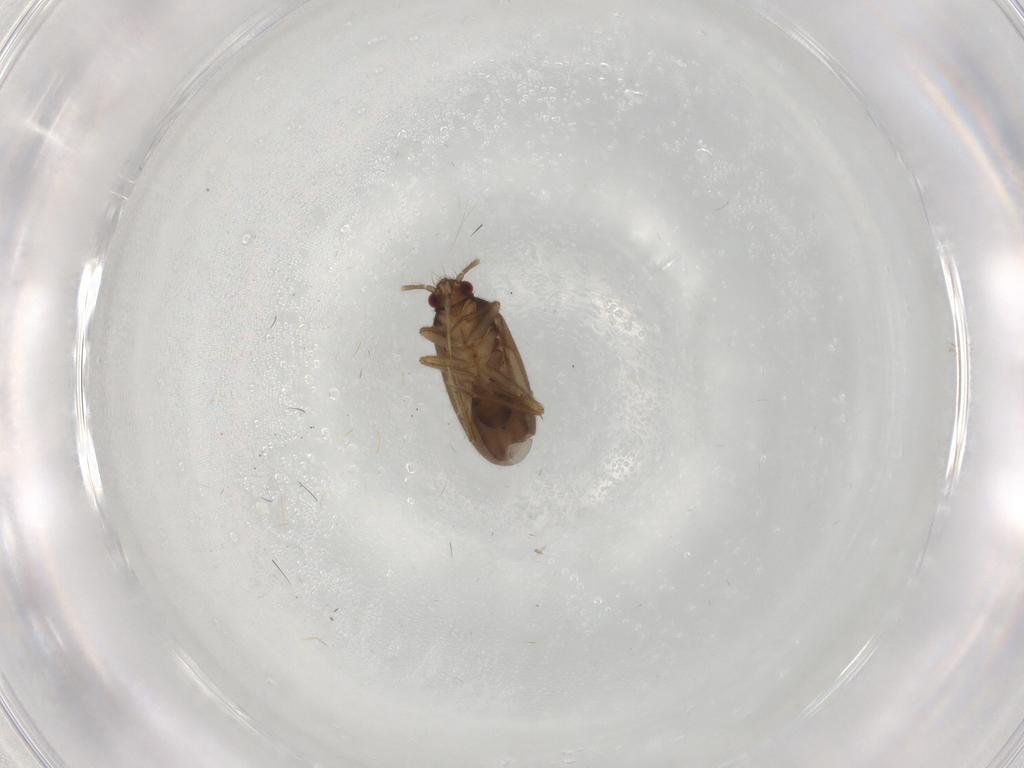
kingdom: Animalia
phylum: Arthropoda
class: Insecta
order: Hemiptera
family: Ceratocombidae
